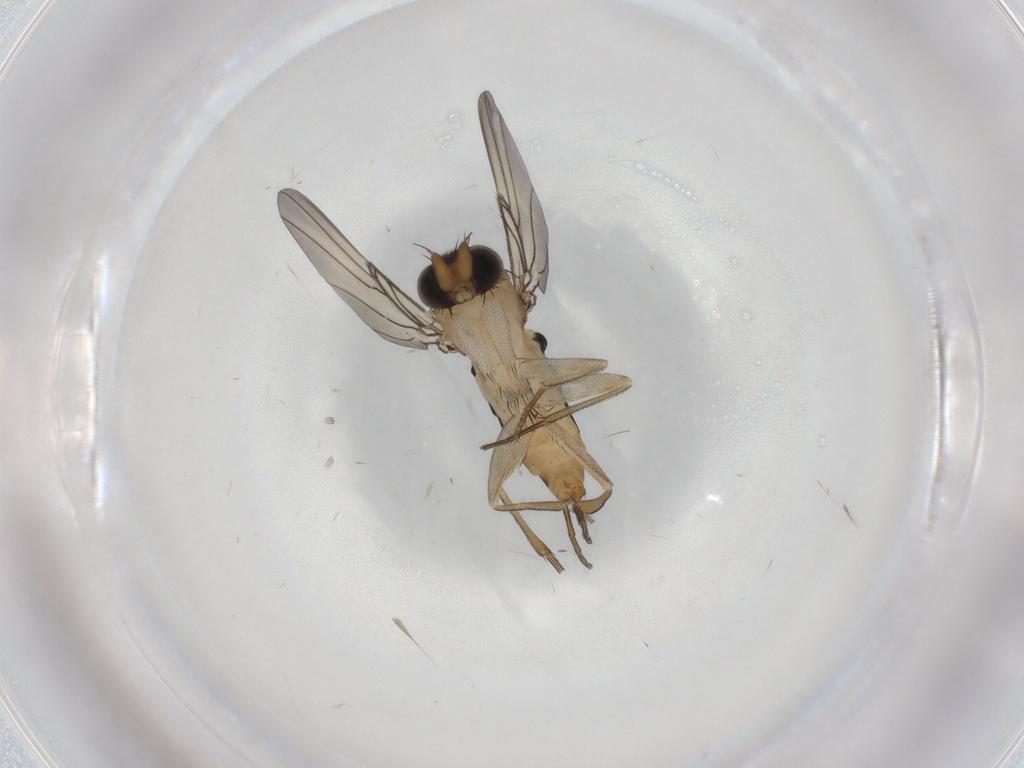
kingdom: Animalia
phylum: Arthropoda
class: Insecta
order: Diptera
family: Phoridae
